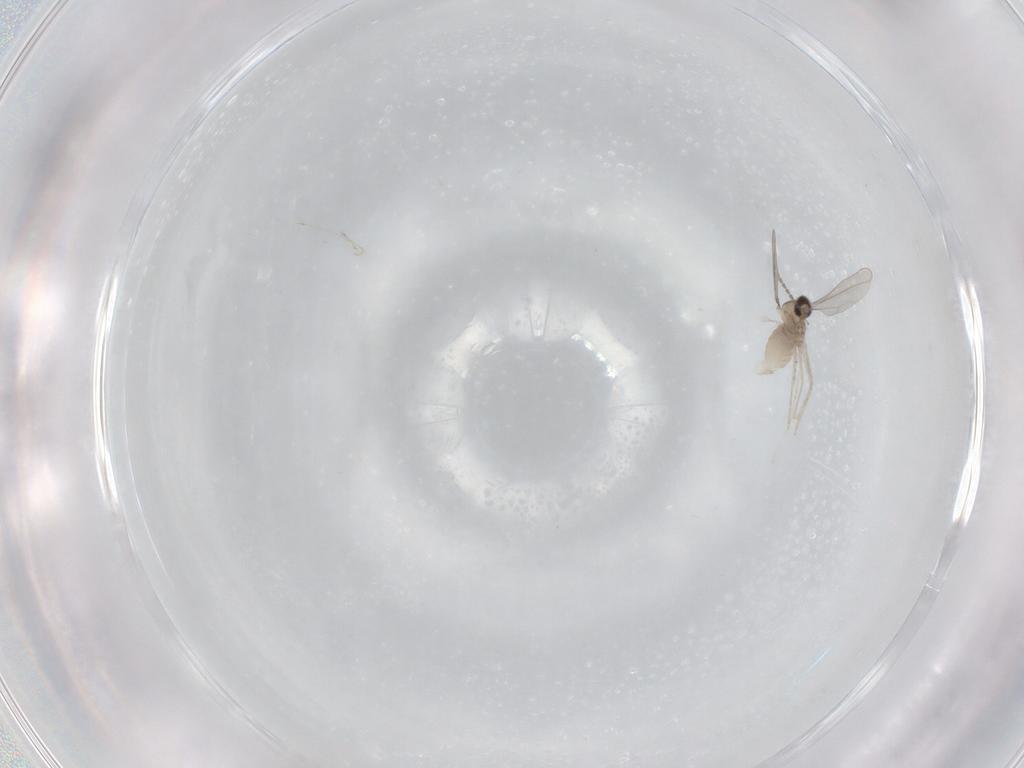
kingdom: Animalia
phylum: Arthropoda
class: Insecta
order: Diptera
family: Chironomidae
